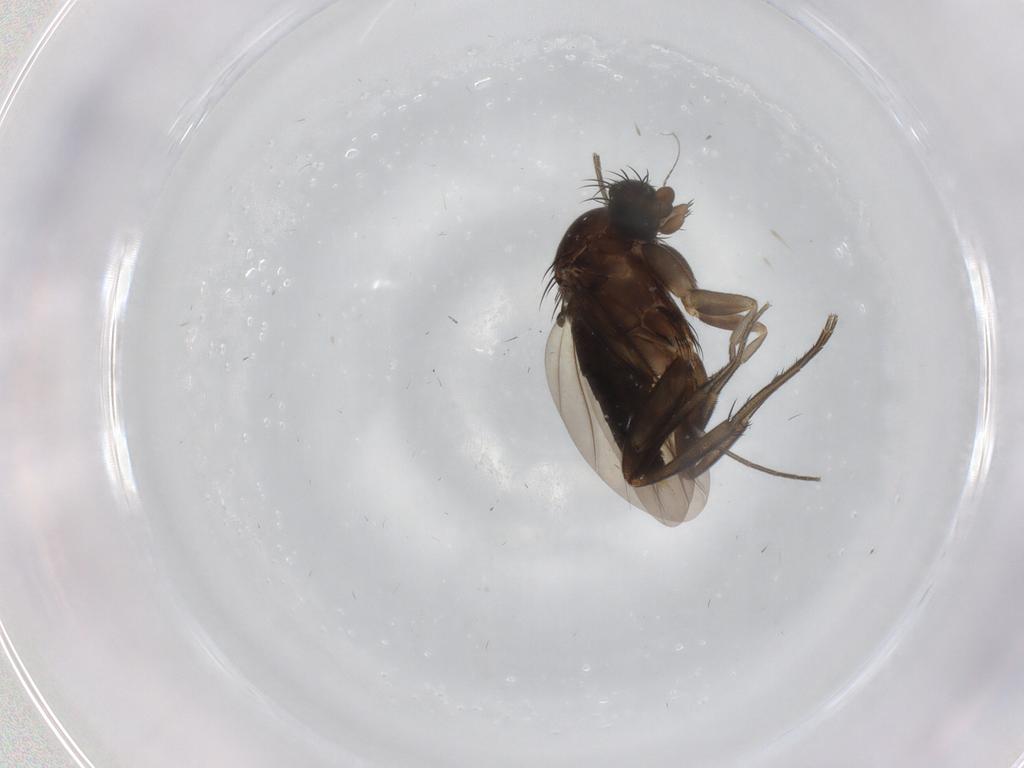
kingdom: Animalia
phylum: Arthropoda
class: Insecta
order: Diptera
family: Phoridae
